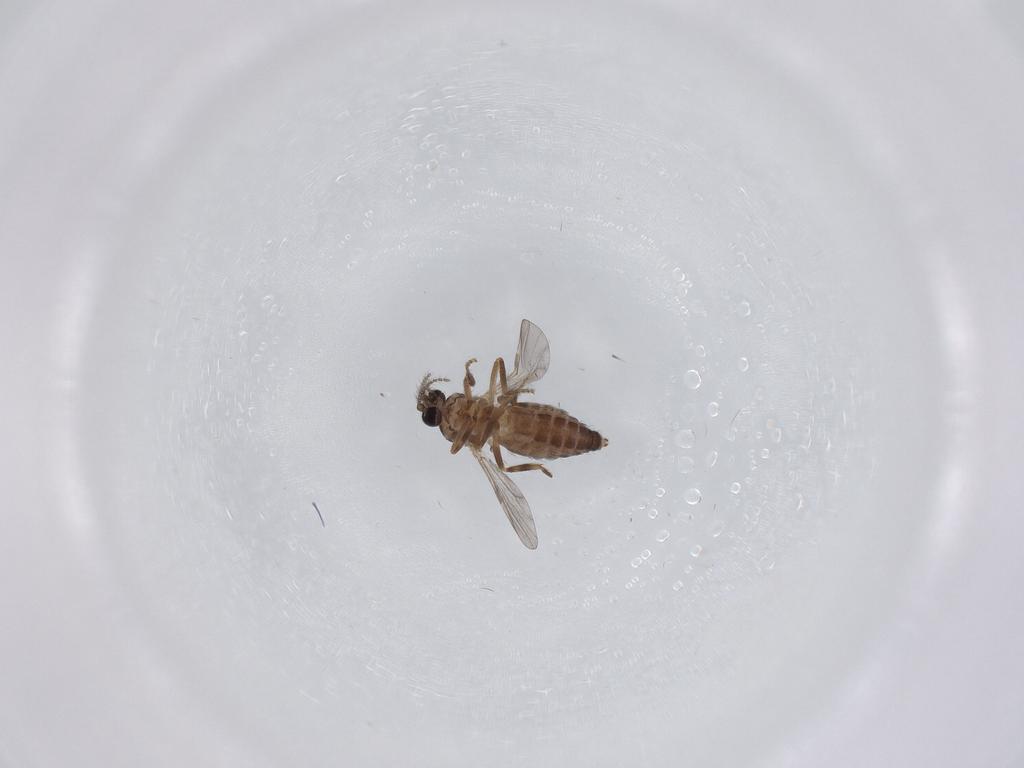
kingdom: Animalia
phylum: Arthropoda
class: Insecta
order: Diptera
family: Ceratopogonidae
